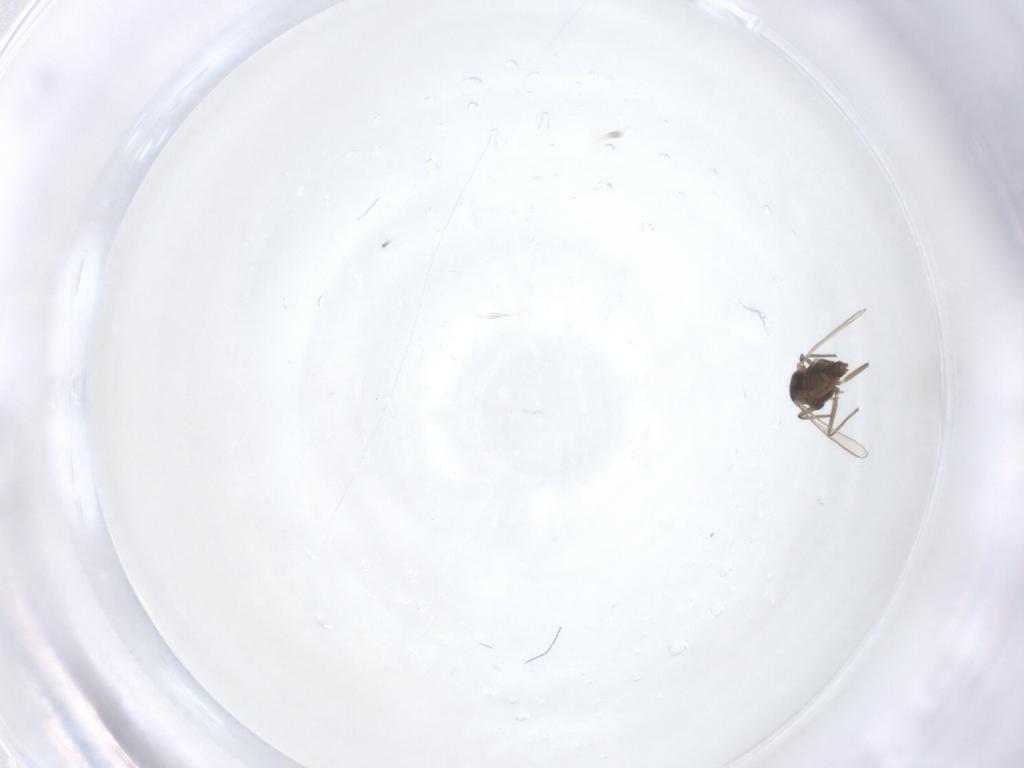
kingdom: Animalia
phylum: Arthropoda
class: Insecta
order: Diptera
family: Chironomidae
